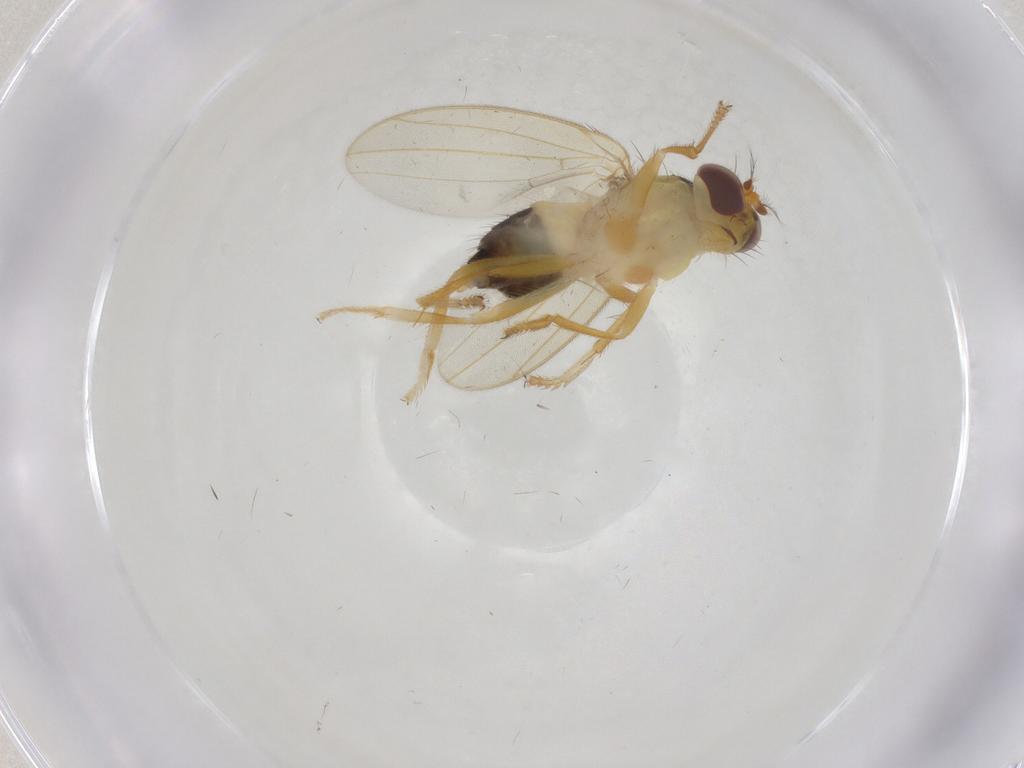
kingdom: Animalia
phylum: Arthropoda
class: Insecta
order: Diptera
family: Periscelididae
